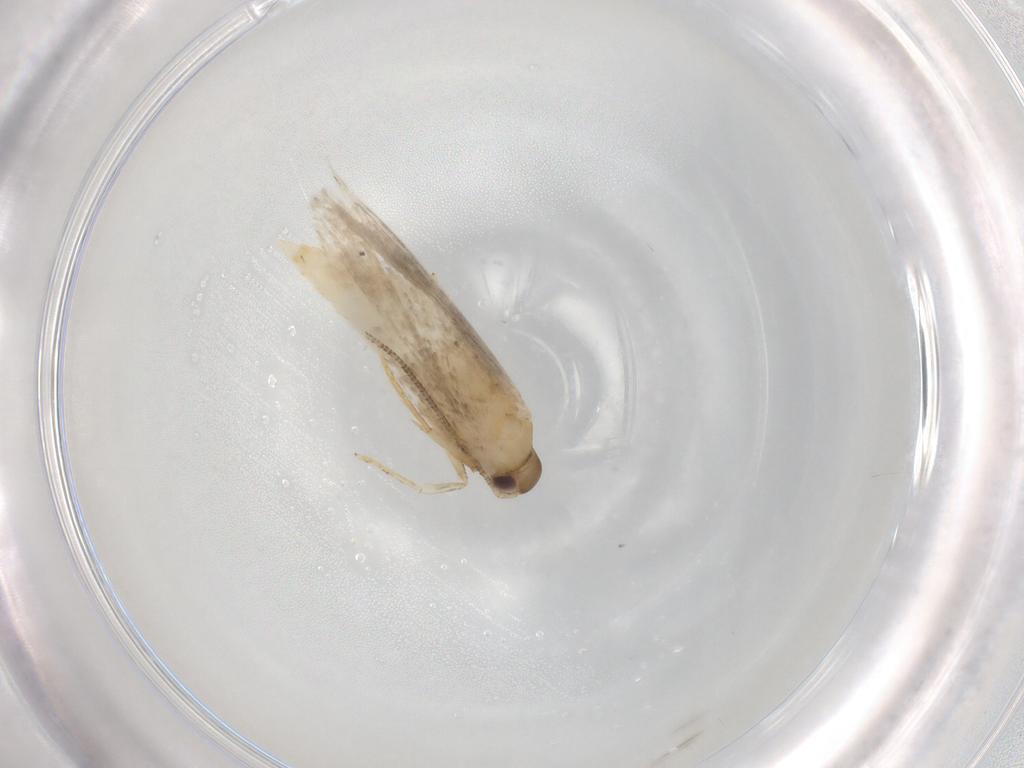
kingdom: Animalia
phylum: Arthropoda
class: Insecta
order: Lepidoptera
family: Autostichidae
